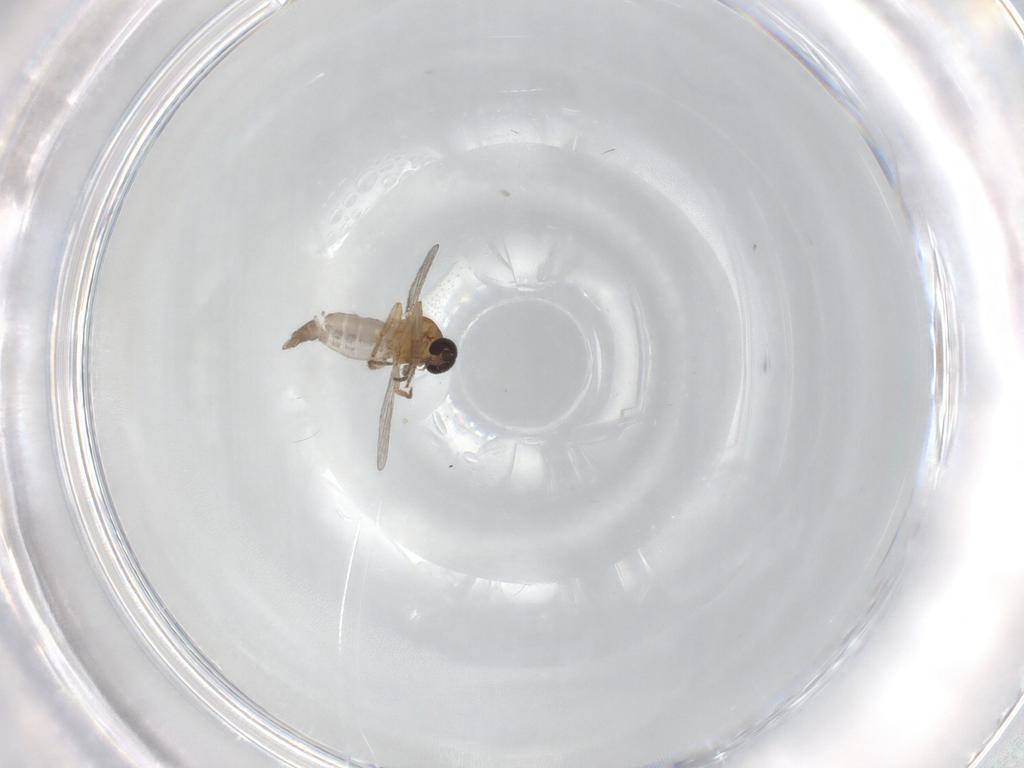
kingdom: Animalia
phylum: Arthropoda
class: Insecta
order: Diptera
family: Ceratopogonidae
